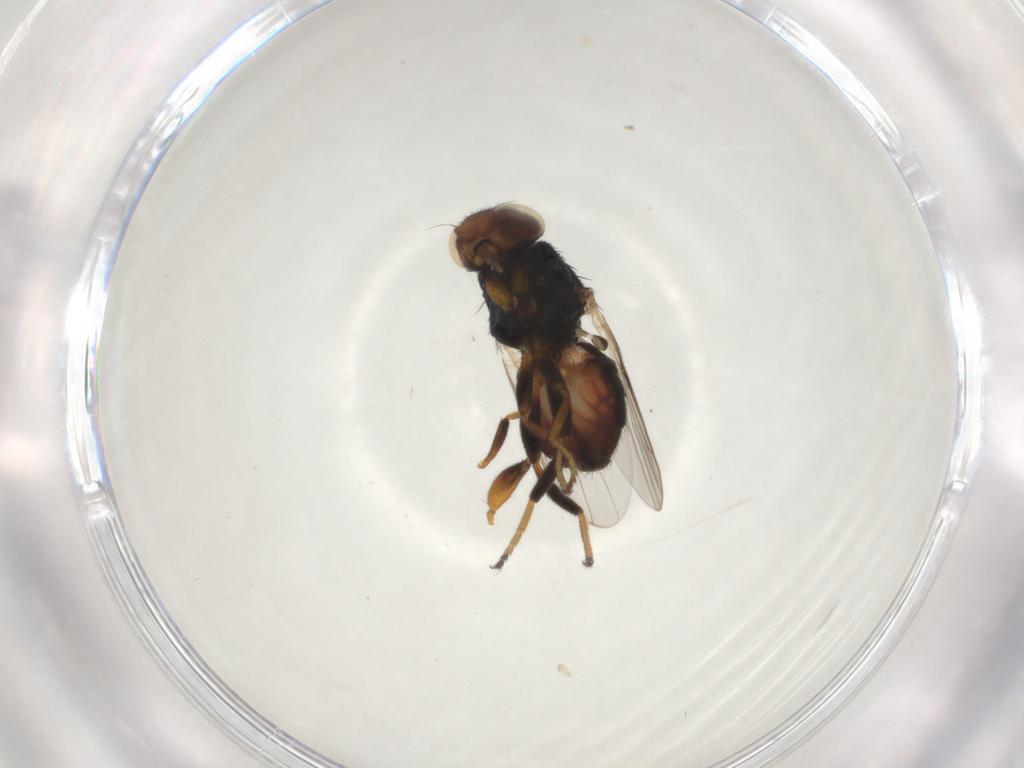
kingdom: Animalia
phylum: Arthropoda
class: Insecta
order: Diptera
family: Chloropidae
